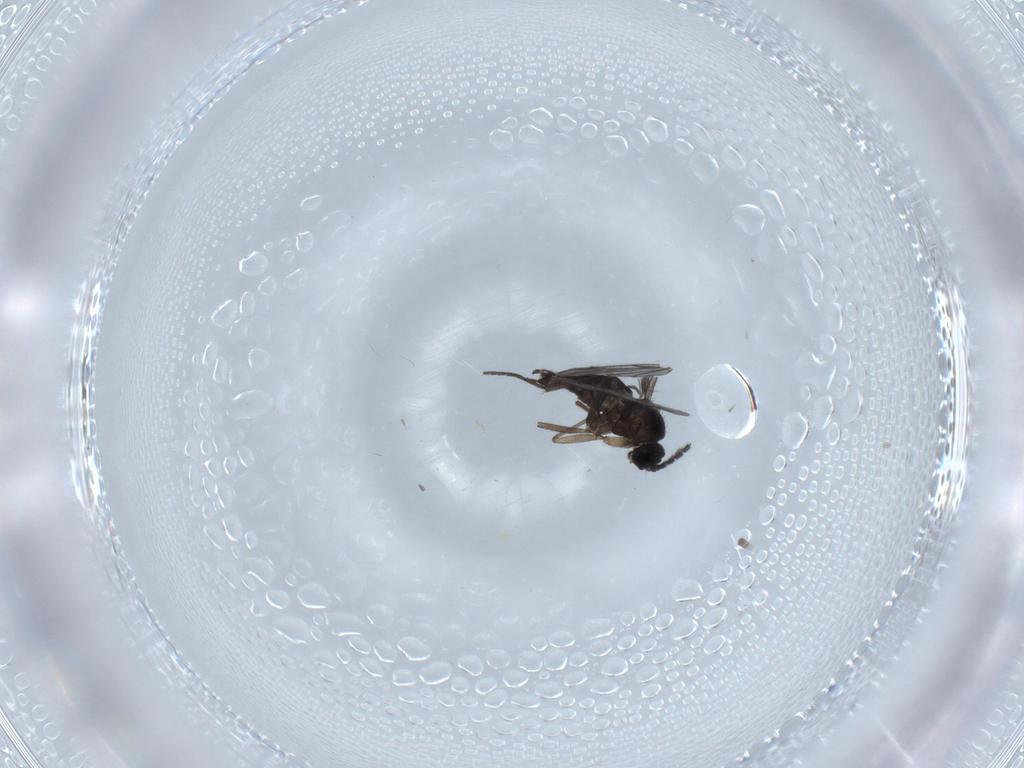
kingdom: Animalia
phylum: Arthropoda
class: Insecta
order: Diptera
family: Sciaridae
